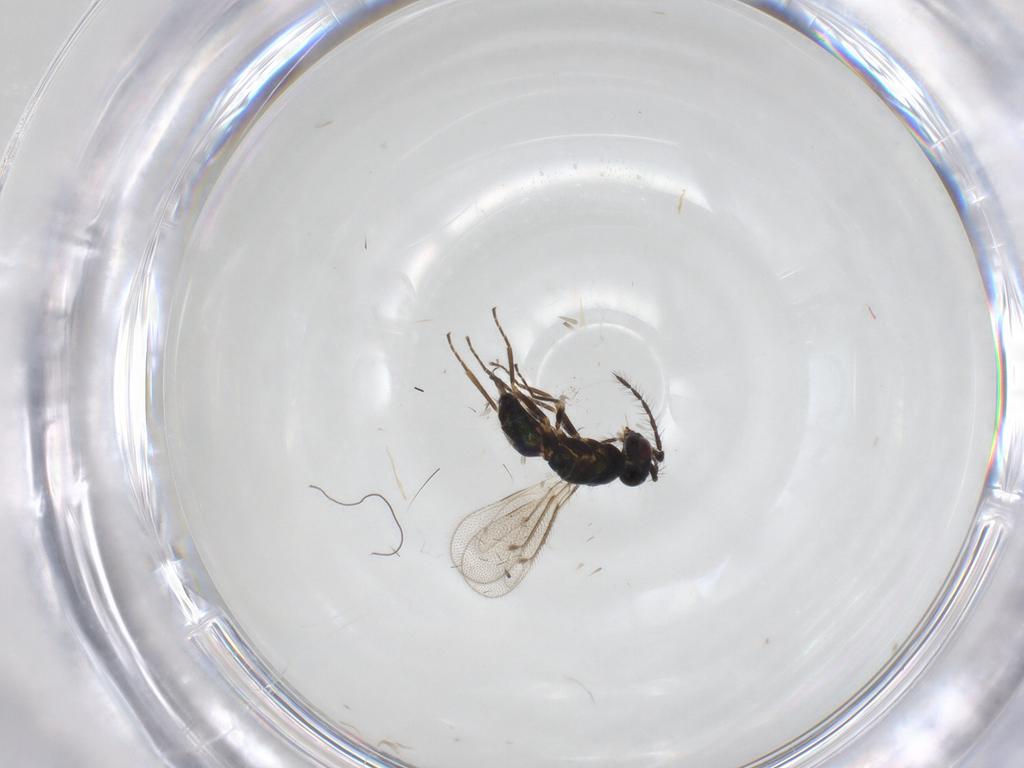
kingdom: Animalia
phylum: Arthropoda
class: Insecta
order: Hymenoptera
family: Eulophidae
